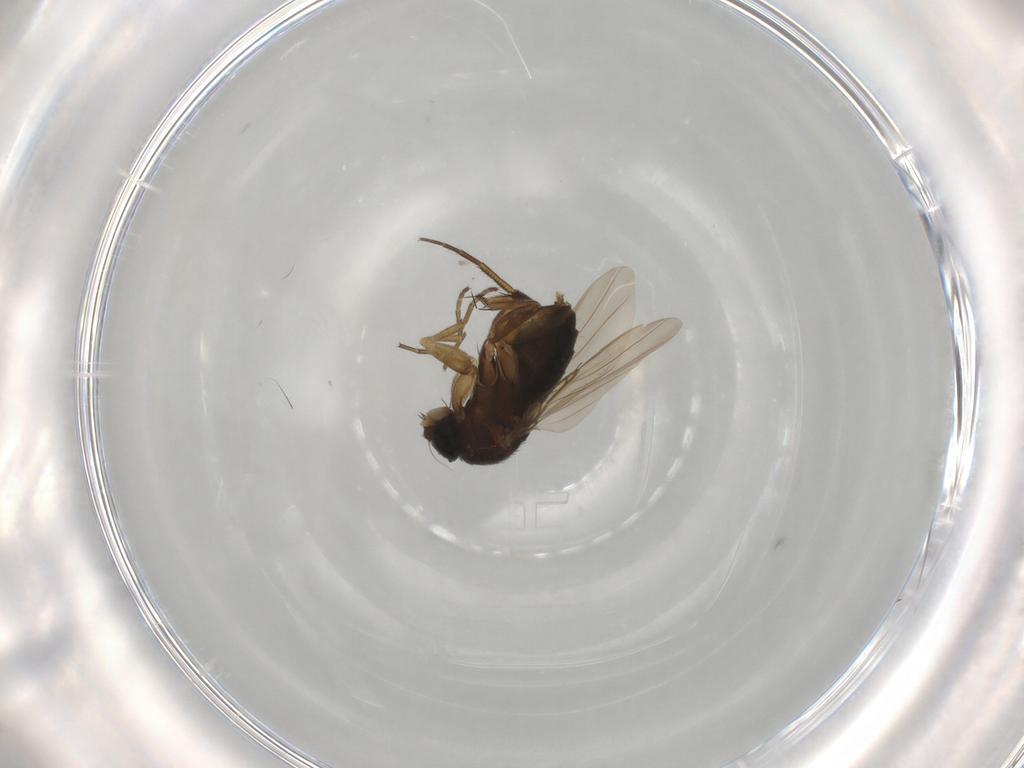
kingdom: Animalia
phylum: Arthropoda
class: Insecta
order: Diptera
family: Phoridae
